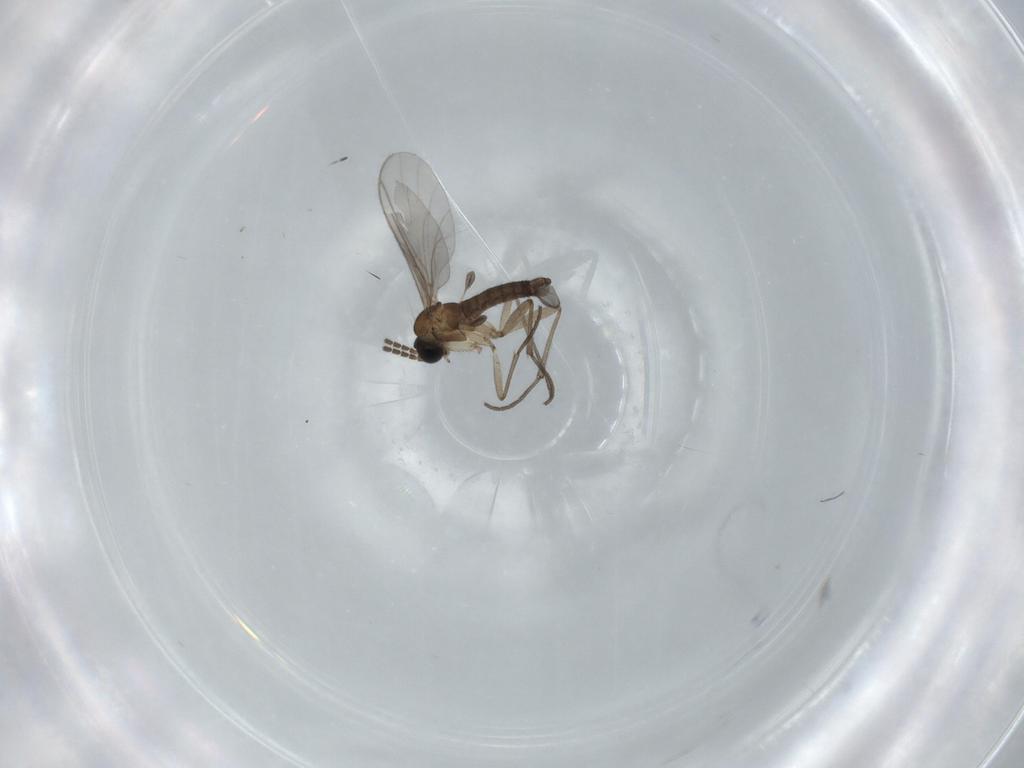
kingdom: Animalia
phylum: Arthropoda
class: Insecta
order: Diptera
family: Sciaridae
